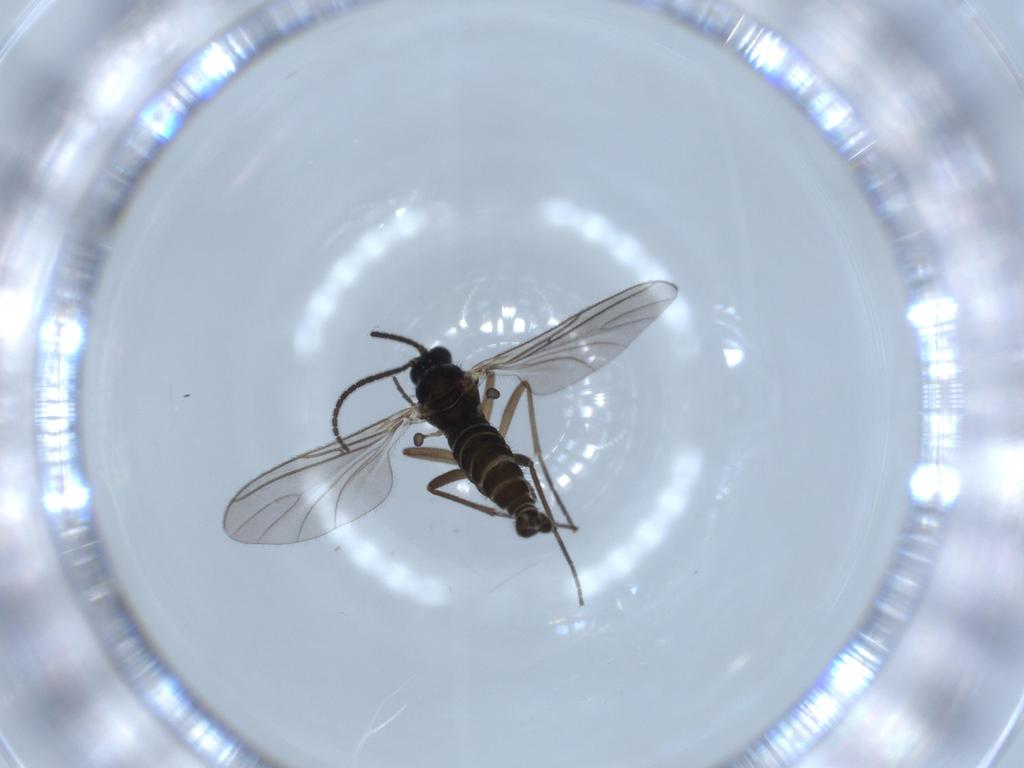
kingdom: Animalia
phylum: Arthropoda
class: Insecta
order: Diptera
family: Sciaridae
